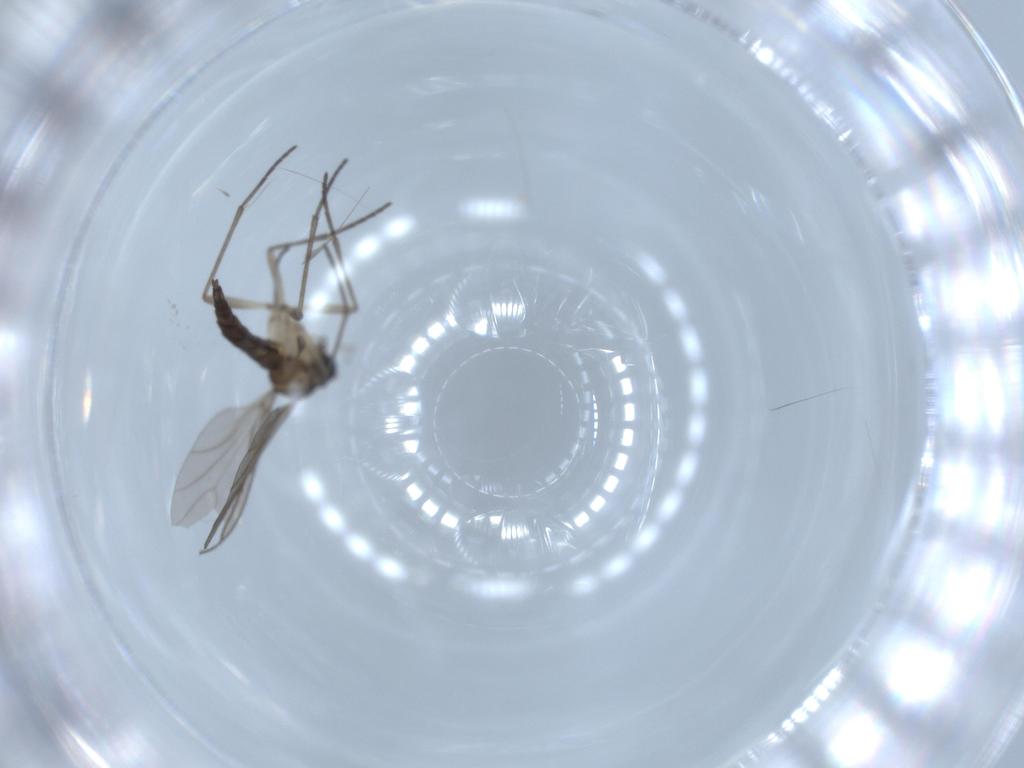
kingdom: Animalia
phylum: Arthropoda
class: Insecta
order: Diptera
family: Sciaridae
